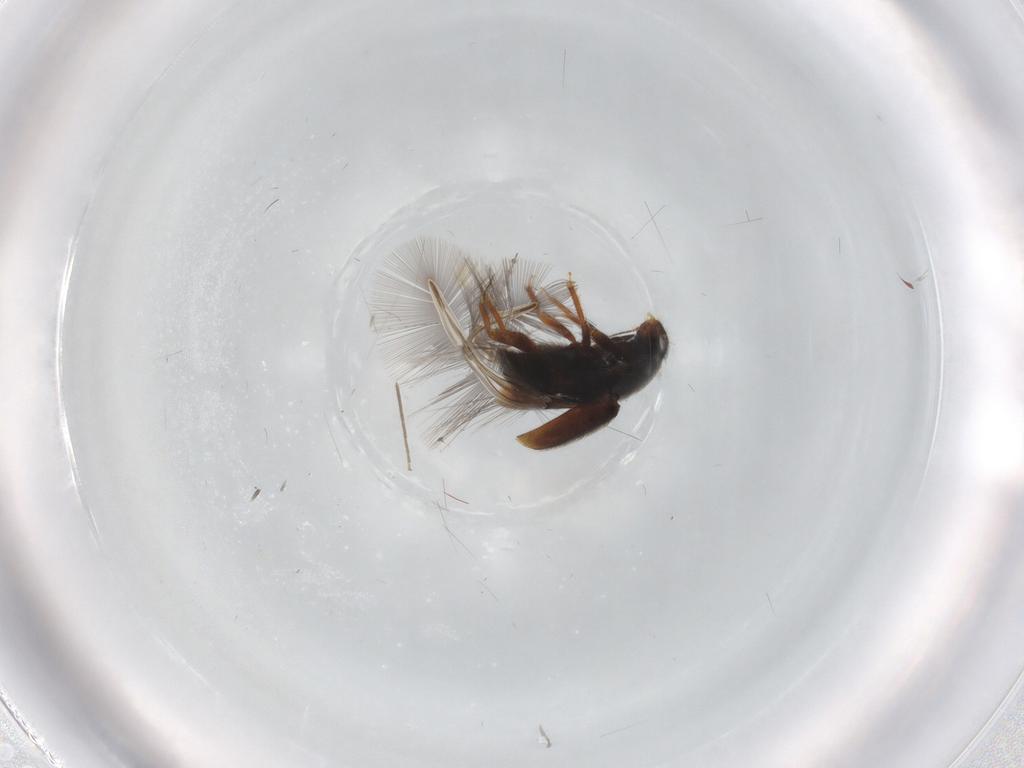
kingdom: Animalia
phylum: Arthropoda
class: Insecta
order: Coleoptera
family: Ptiliidae
